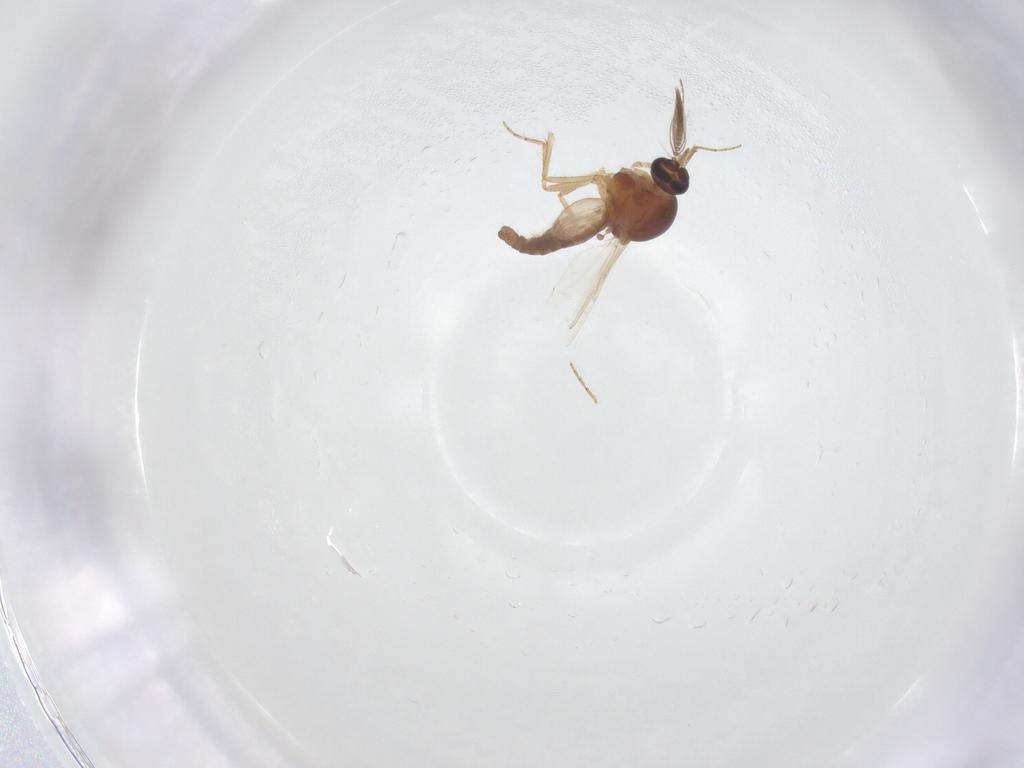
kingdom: Animalia
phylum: Arthropoda
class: Insecta
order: Diptera
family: Ceratopogonidae
